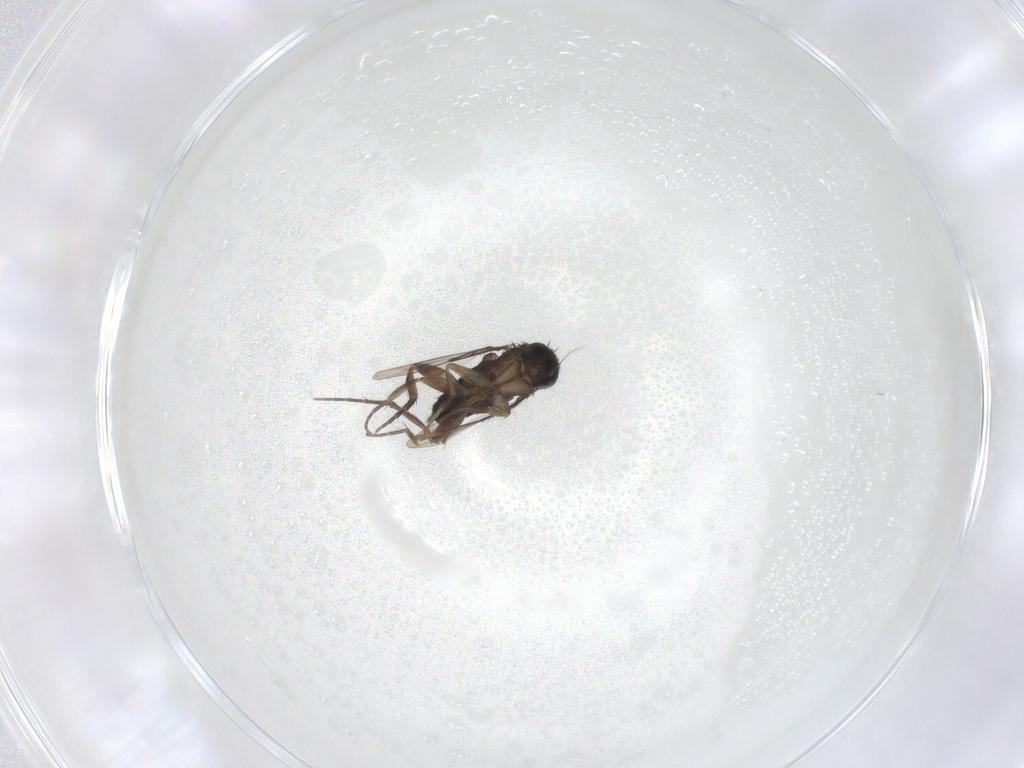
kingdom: Animalia
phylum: Arthropoda
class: Insecta
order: Diptera
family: Phoridae
